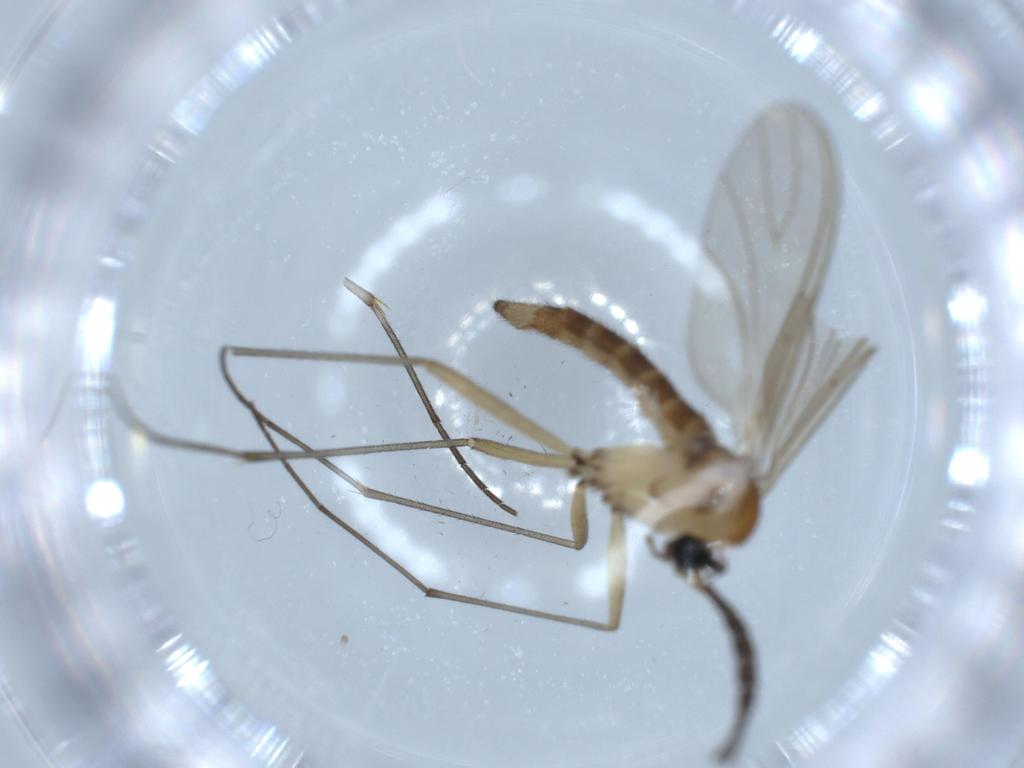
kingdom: Animalia
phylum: Arthropoda
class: Insecta
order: Diptera
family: Sciaridae
